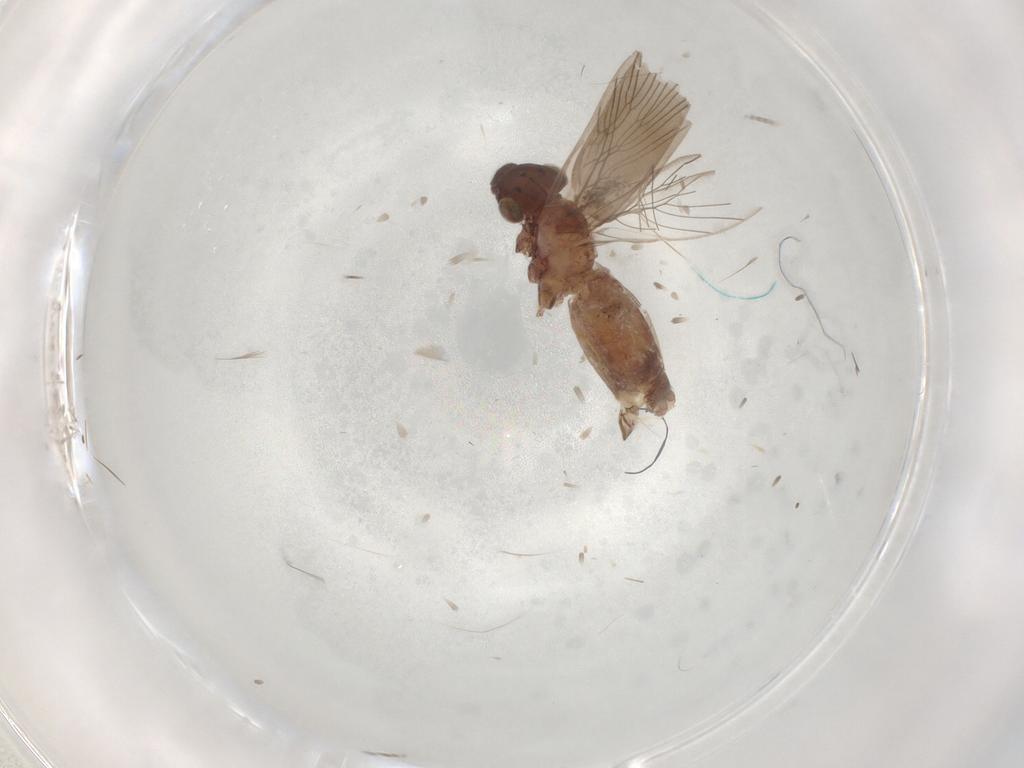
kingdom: Animalia
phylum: Arthropoda
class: Insecta
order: Psocodea
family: Lepidopsocidae
